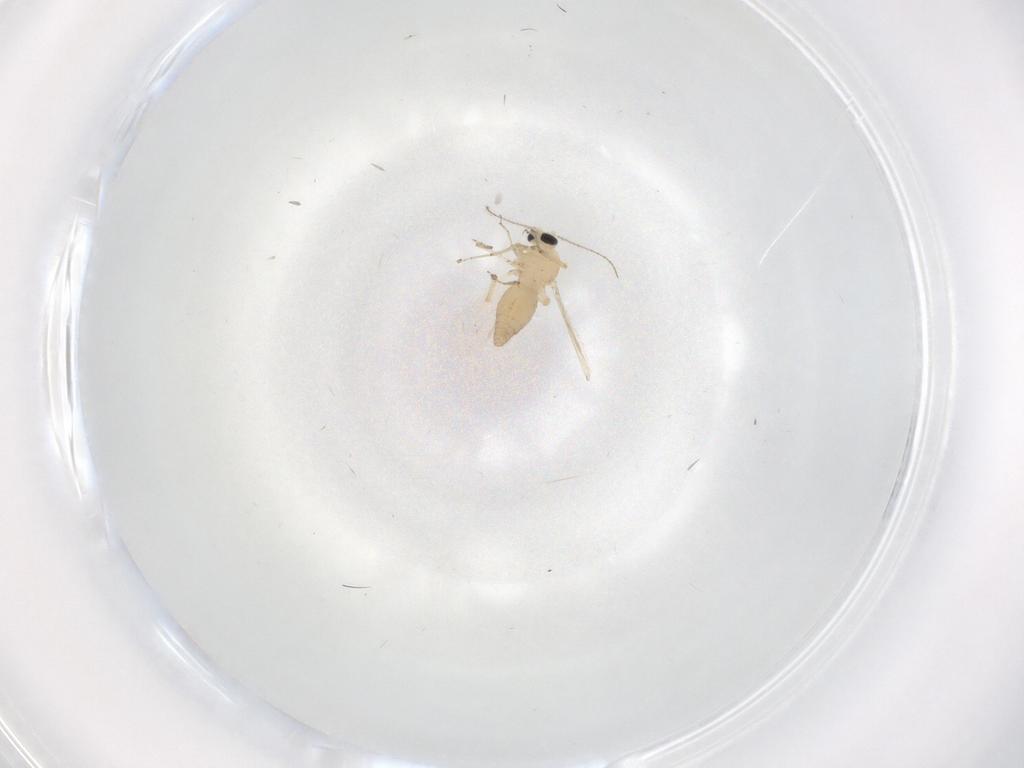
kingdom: Animalia
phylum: Arthropoda
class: Insecta
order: Diptera
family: Ceratopogonidae
